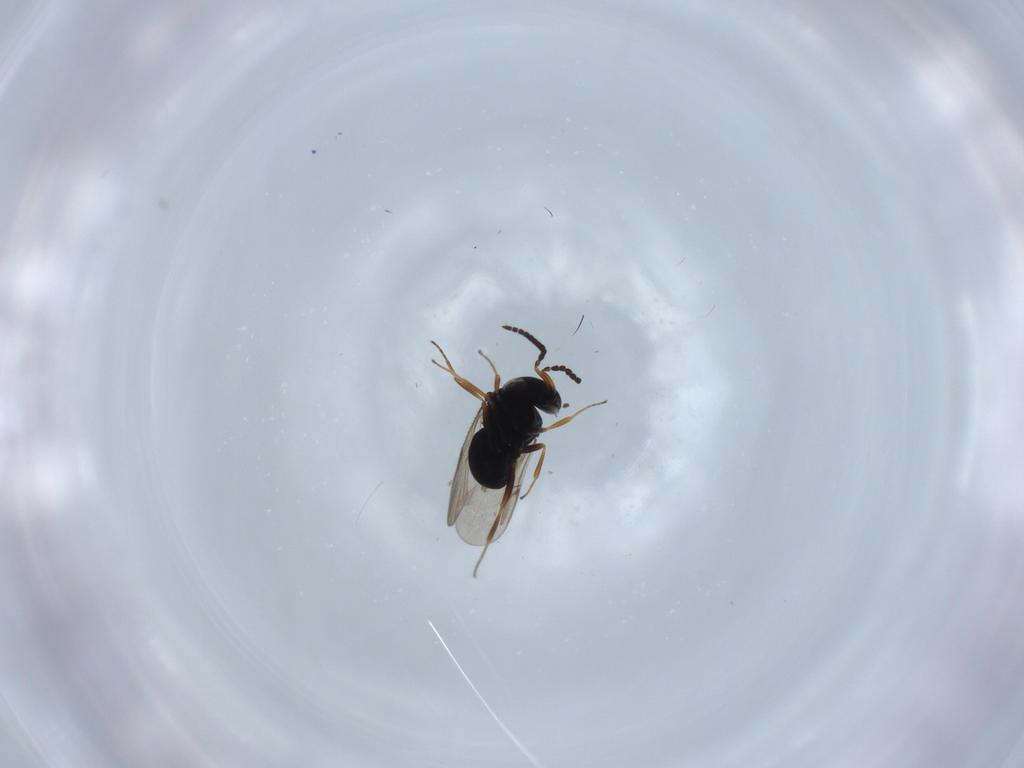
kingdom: Animalia
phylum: Arthropoda
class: Insecta
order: Hymenoptera
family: Scelionidae
